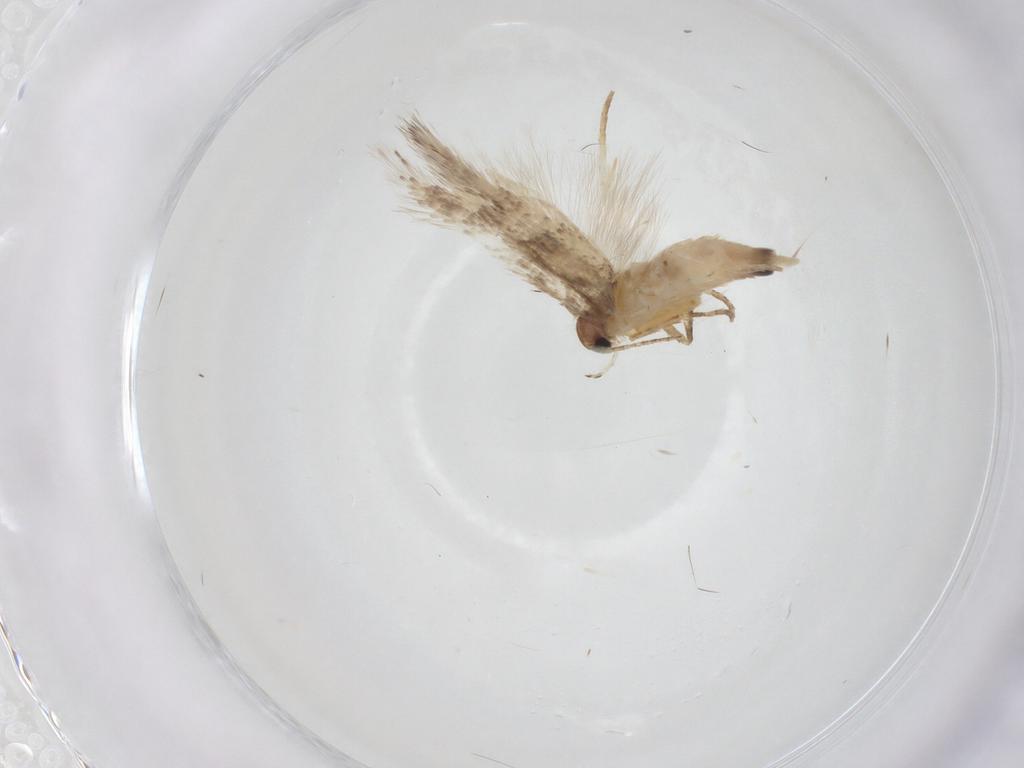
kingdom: Animalia
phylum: Arthropoda
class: Insecta
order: Lepidoptera
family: Gelechiidae
